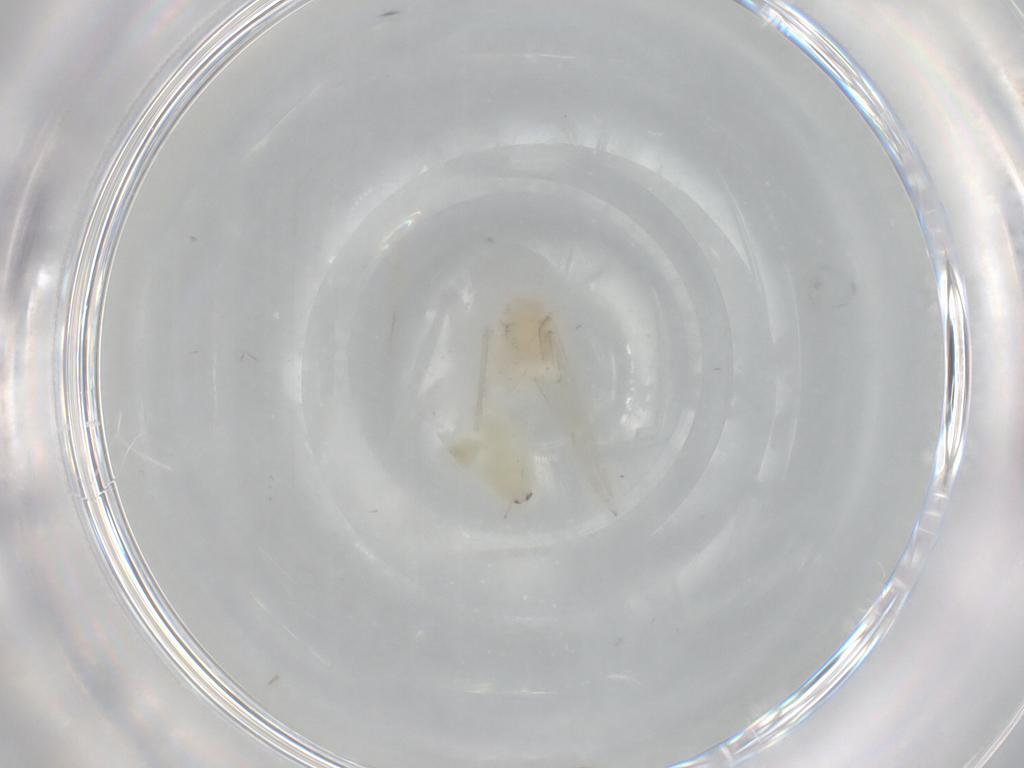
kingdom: Animalia
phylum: Arthropoda
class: Insecta
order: Psocodea
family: Lepidopsocidae
